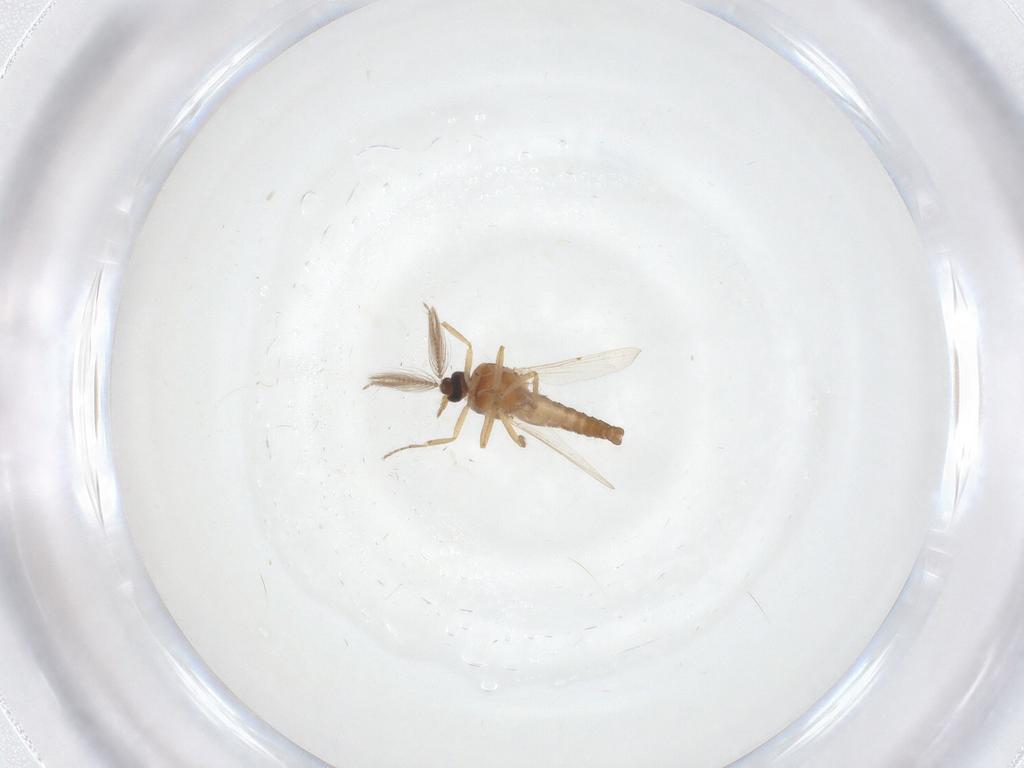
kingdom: Animalia
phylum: Arthropoda
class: Insecta
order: Diptera
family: Ceratopogonidae
